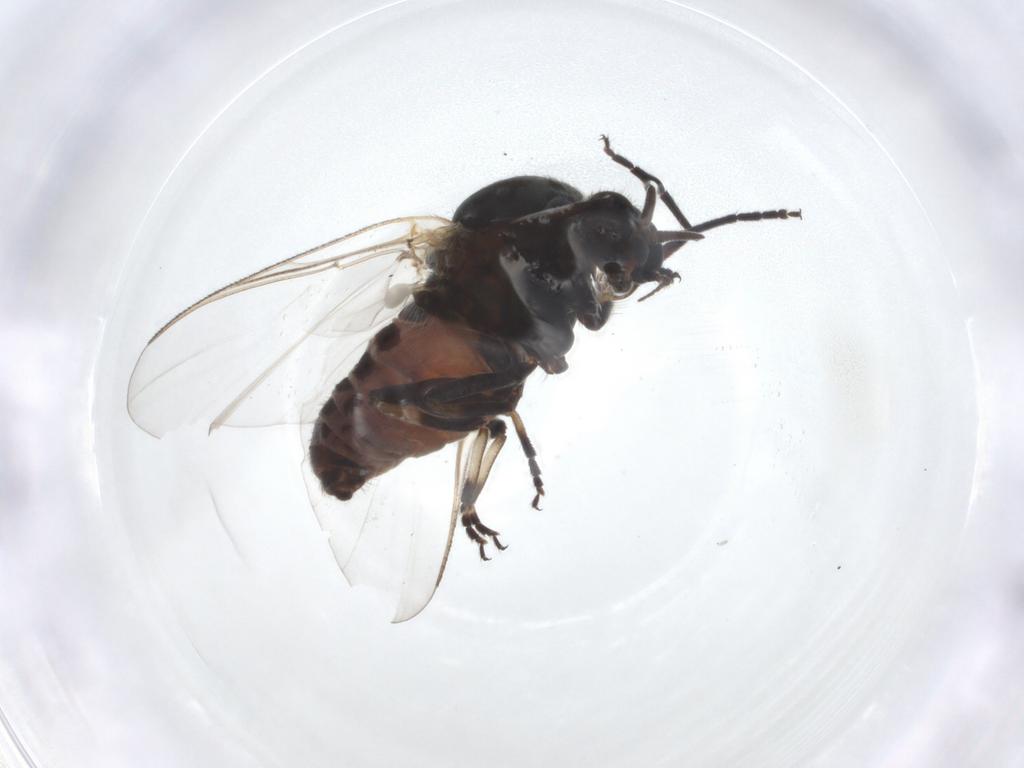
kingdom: Animalia
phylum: Arthropoda
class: Insecta
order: Diptera
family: Simuliidae
